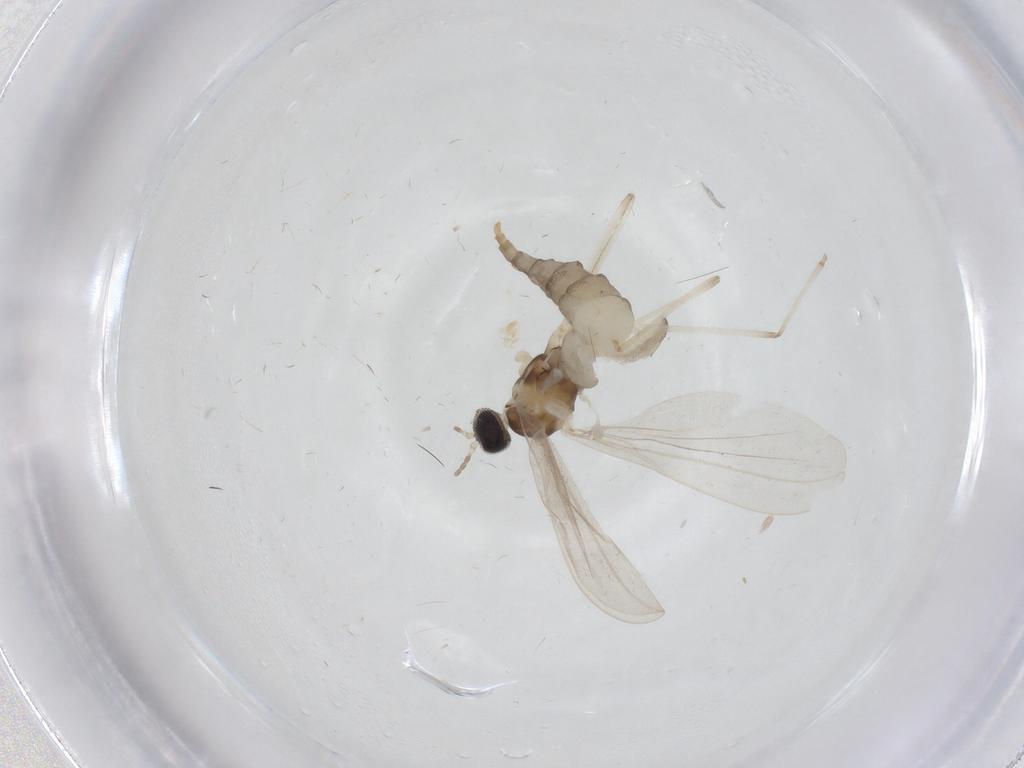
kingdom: Animalia
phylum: Arthropoda
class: Insecta
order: Diptera
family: Cecidomyiidae
